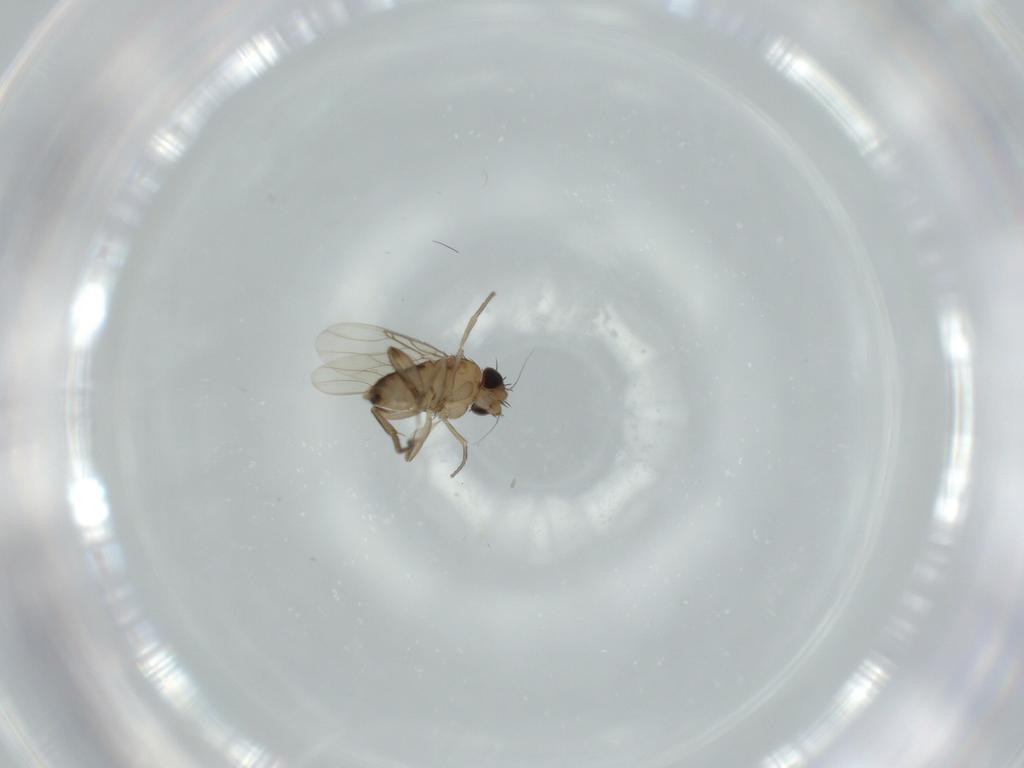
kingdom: Animalia
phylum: Arthropoda
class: Insecta
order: Diptera
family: Phoridae
